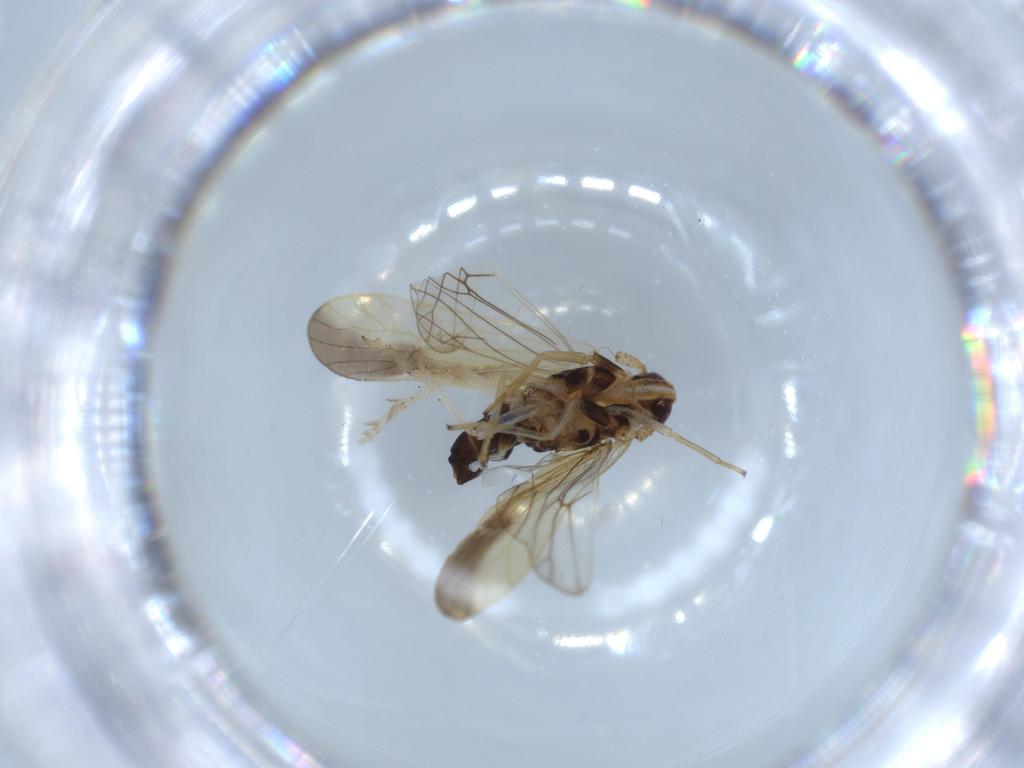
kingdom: Animalia
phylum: Arthropoda
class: Insecta
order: Hemiptera
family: Delphacidae
